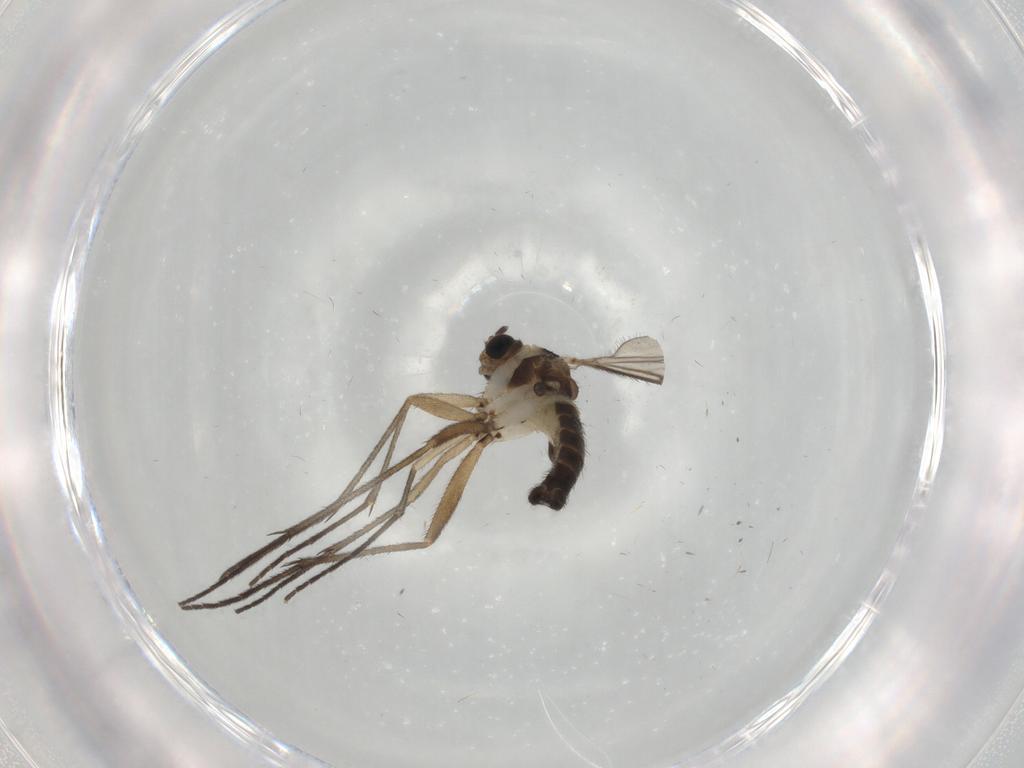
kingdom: Animalia
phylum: Arthropoda
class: Insecta
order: Diptera
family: Sciaridae
